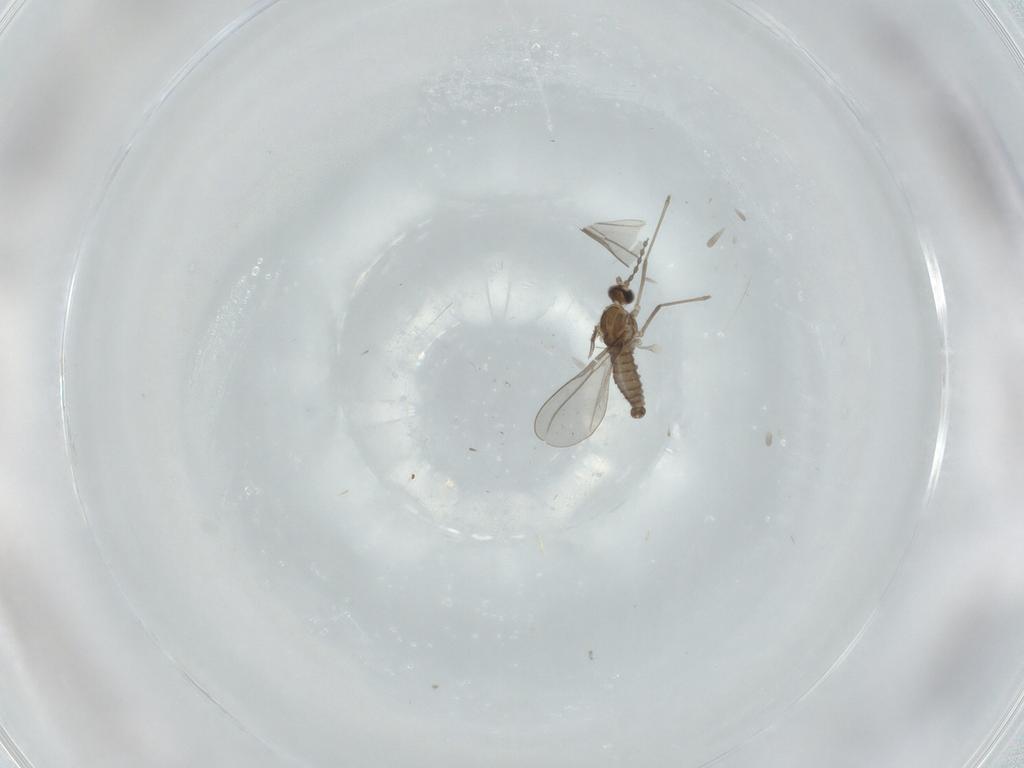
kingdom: Animalia
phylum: Arthropoda
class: Insecta
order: Diptera
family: Cecidomyiidae
